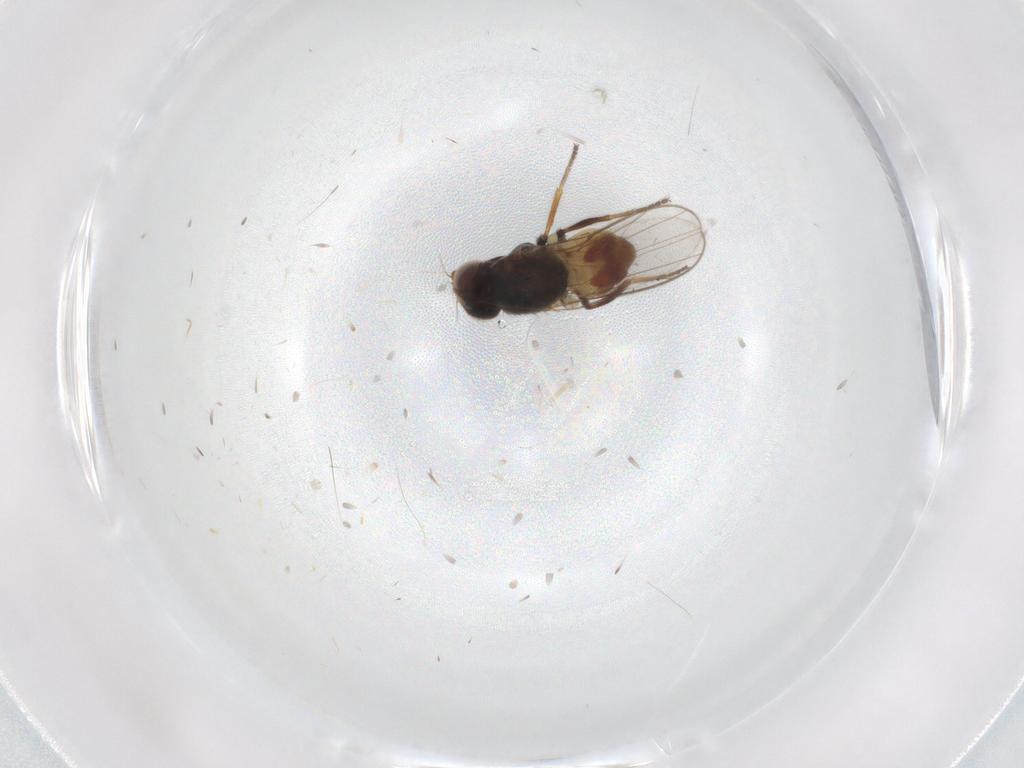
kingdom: Animalia
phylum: Arthropoda
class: Insecta
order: Diptera
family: Chloropidae
